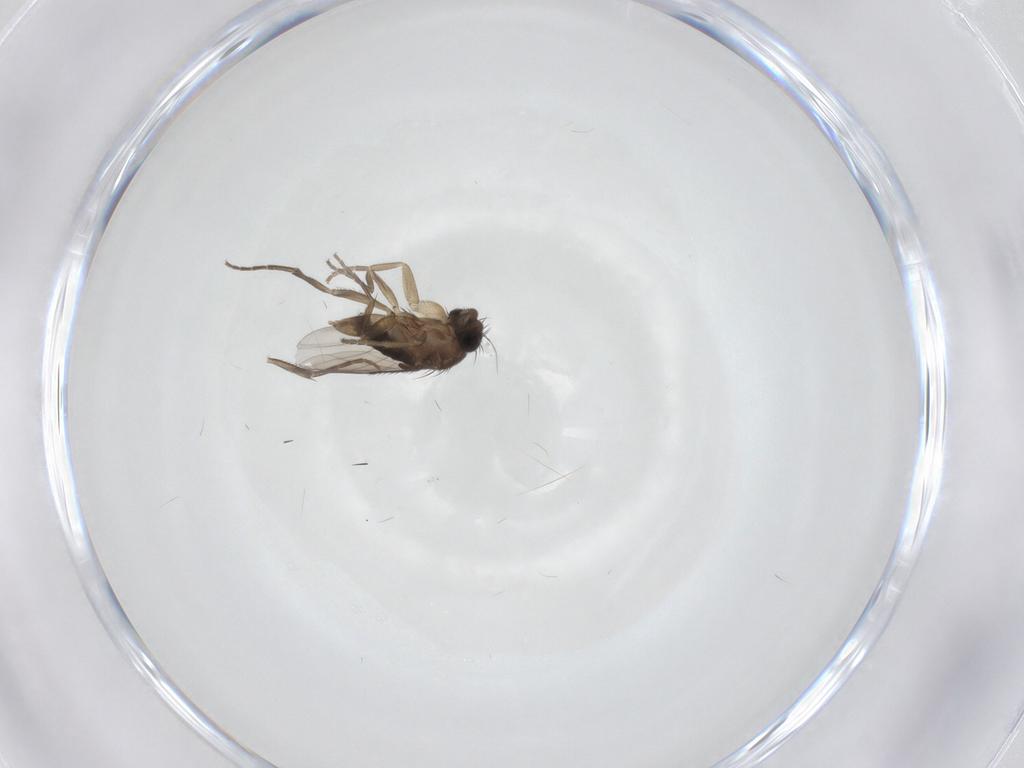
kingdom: Animalia
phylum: Arthropoda
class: Insecta
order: Diptera
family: Phoridae
